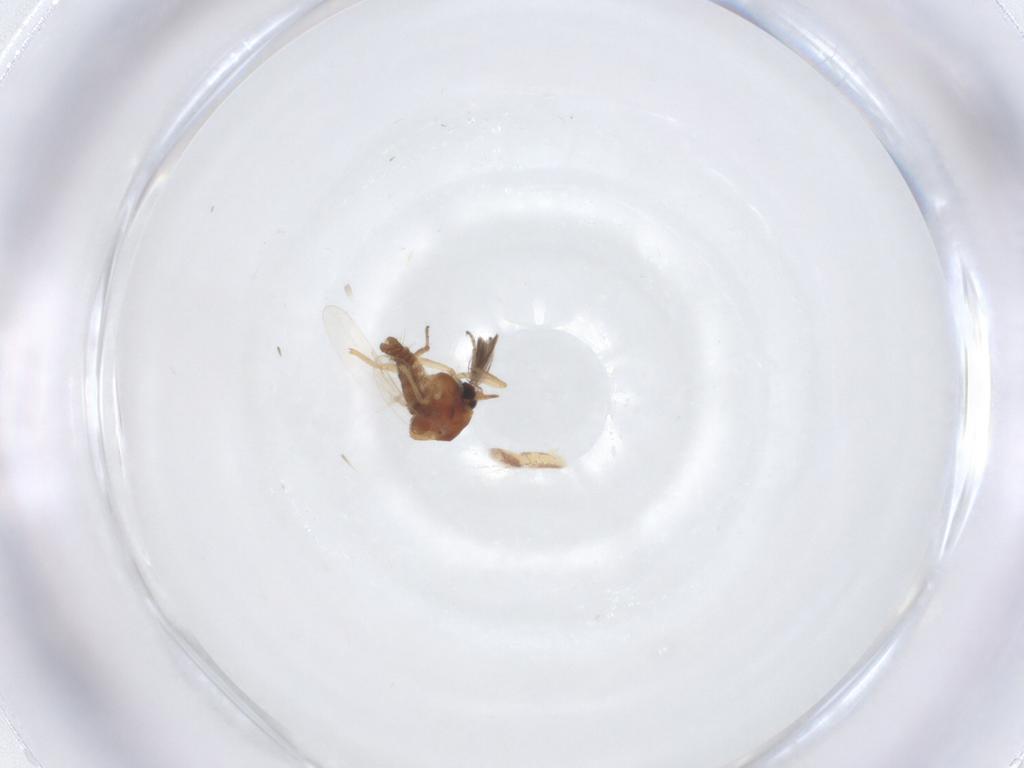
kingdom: Animalia
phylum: Arthropoda
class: Insecta
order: Diptera
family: Ceratopogonidae
